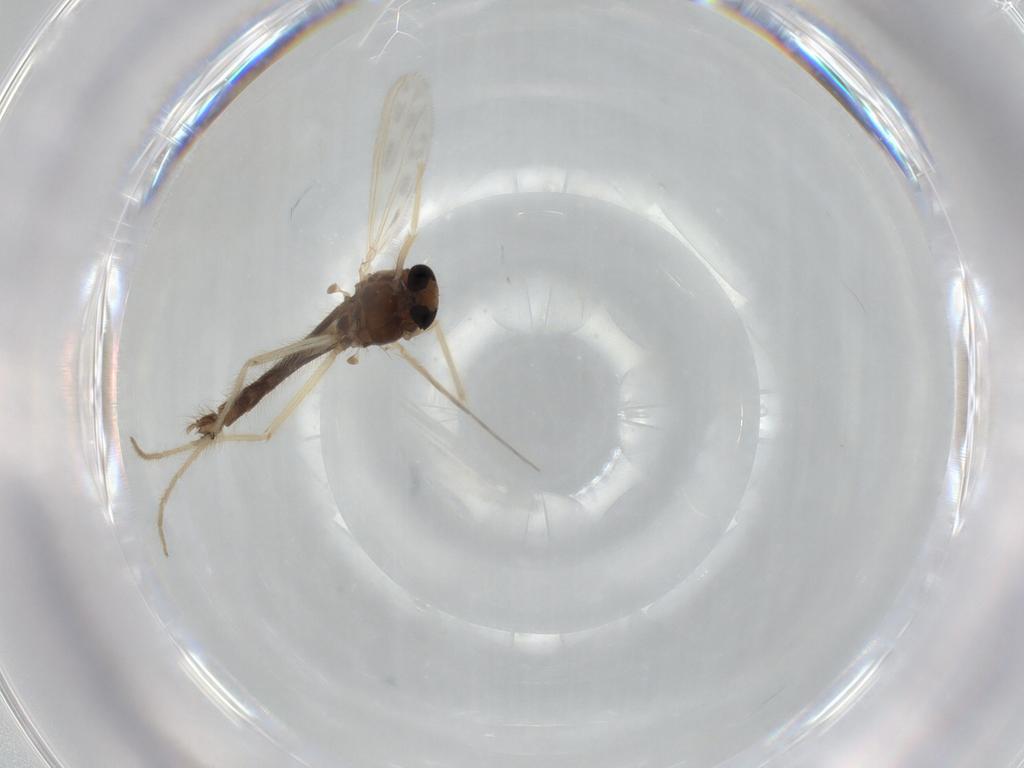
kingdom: Animalia
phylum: Arthropoda
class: Insecta
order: Diptera
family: Chironomidae
